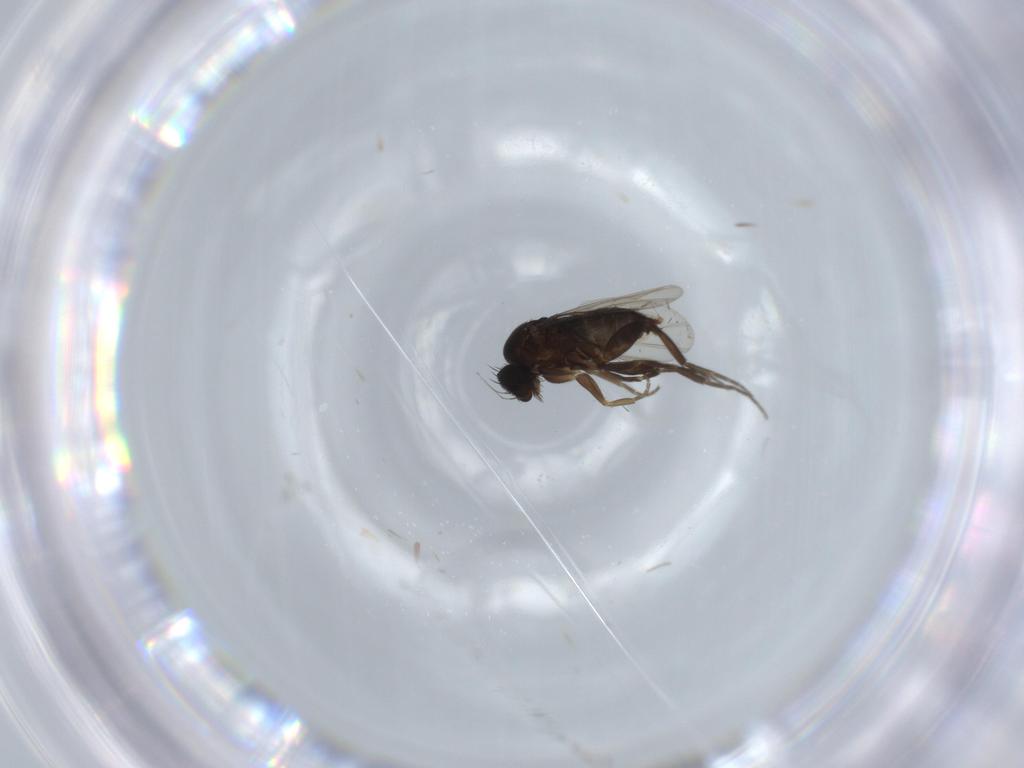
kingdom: Animalia
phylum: Arthropoda
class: Insecta
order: Diptera
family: Phoridae
